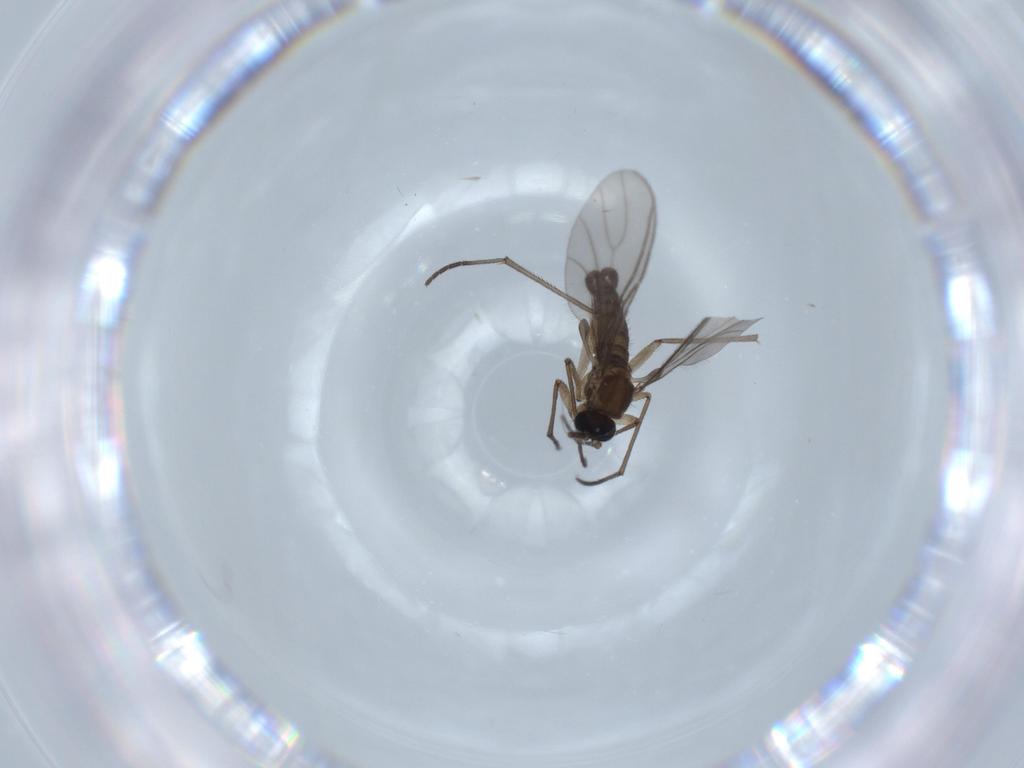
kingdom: Animalia
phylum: Arthropoda
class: Insecta
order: Diptera
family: Sciaridae
